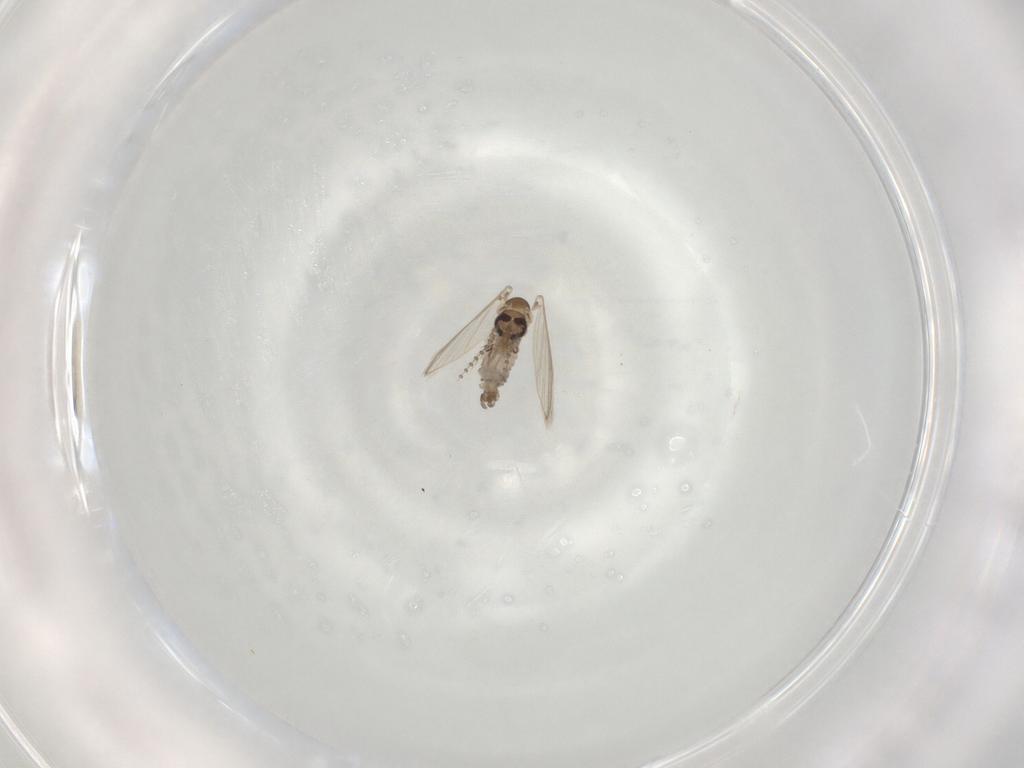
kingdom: Animalia
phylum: Arthropoda
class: Insecta
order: Diptera
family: Psychodidae
